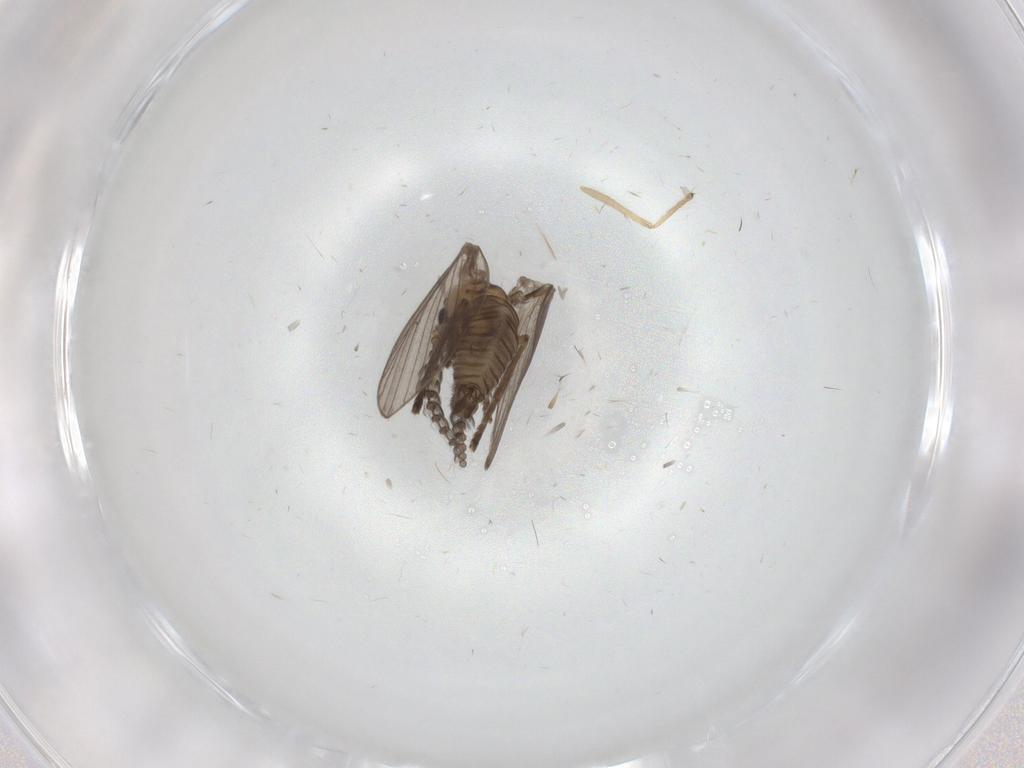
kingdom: Animalia
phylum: Arthropoda
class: Insecta
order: Diptera
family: Psychodidae
